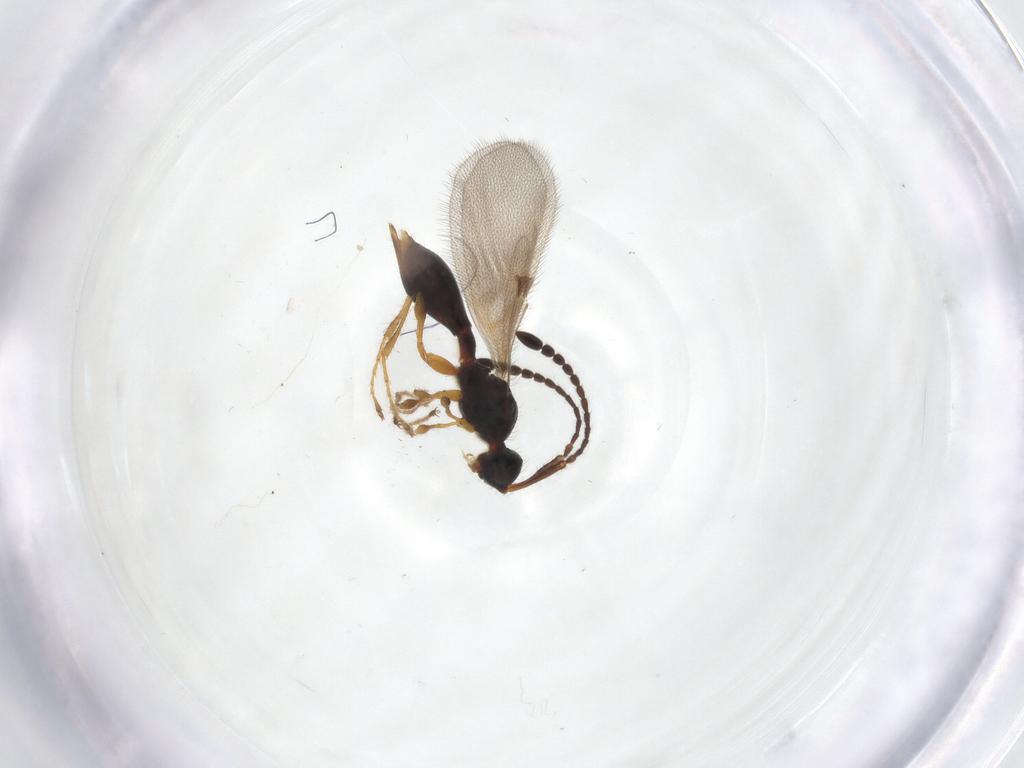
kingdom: Animalia
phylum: Arthropoda
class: Insecta
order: Hymenoptera
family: Diapriidae
